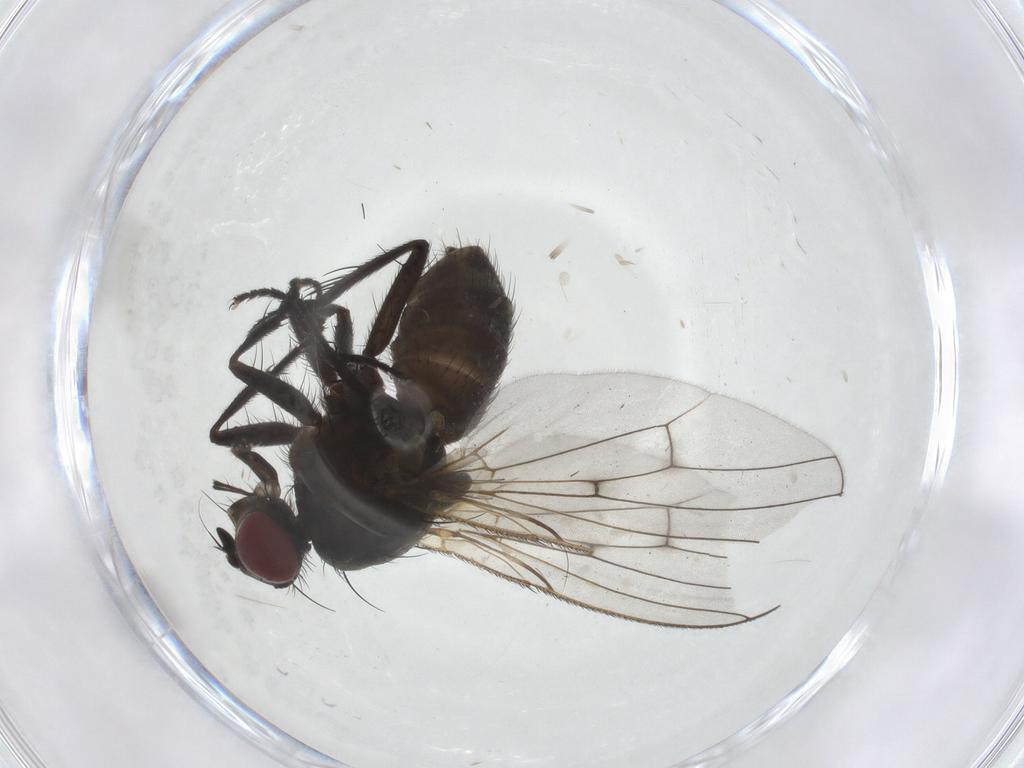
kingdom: Animalia
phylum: Arthropoda
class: Insecta
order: Diptera
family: Muscidae
